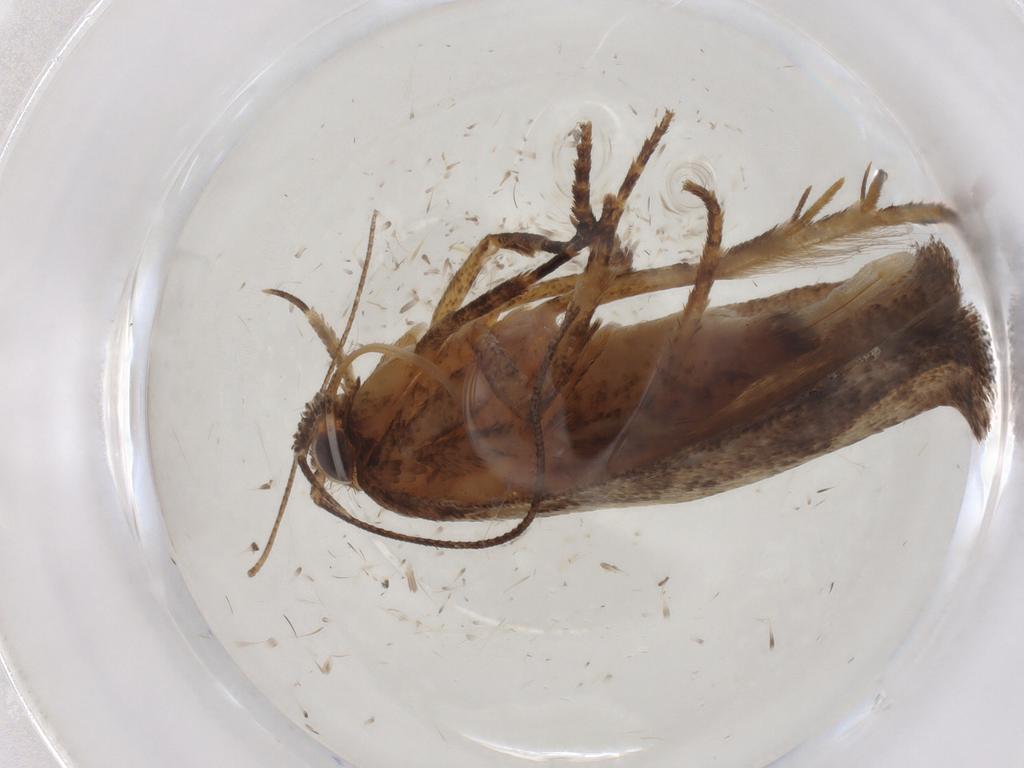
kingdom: Animalia
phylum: Arthropoda
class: Insecta
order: Lepidoptera
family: Gelechiidae
